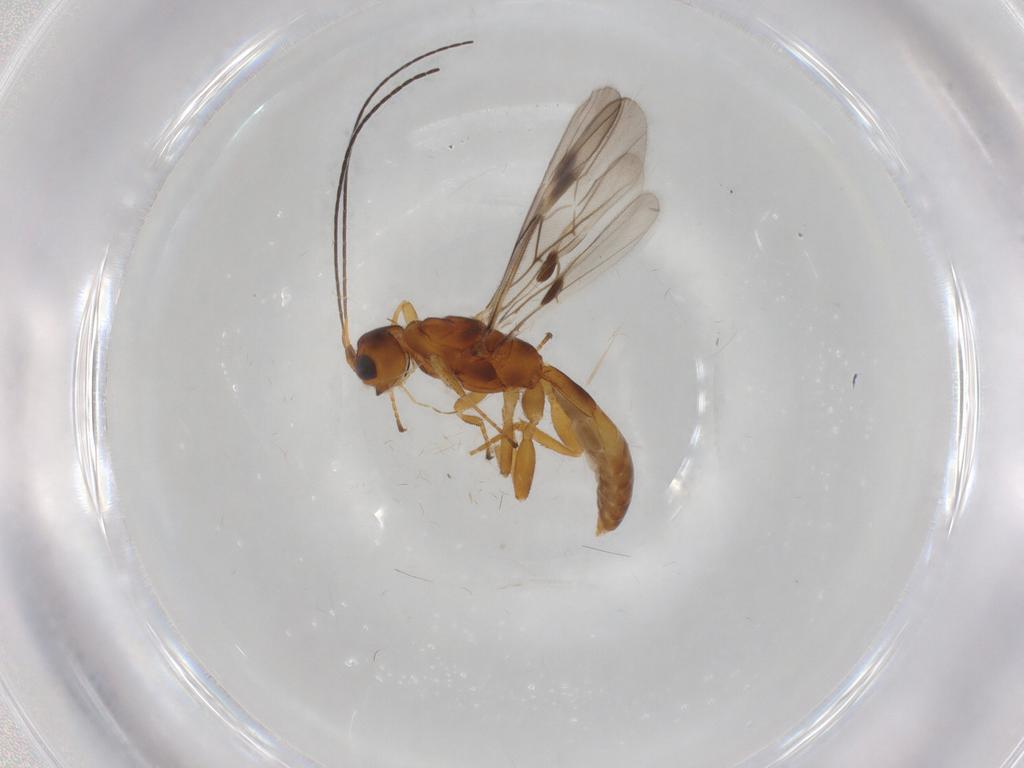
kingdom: Animalia
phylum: Arthropoda
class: Insecta
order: Hymenoptera
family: Braconidae
